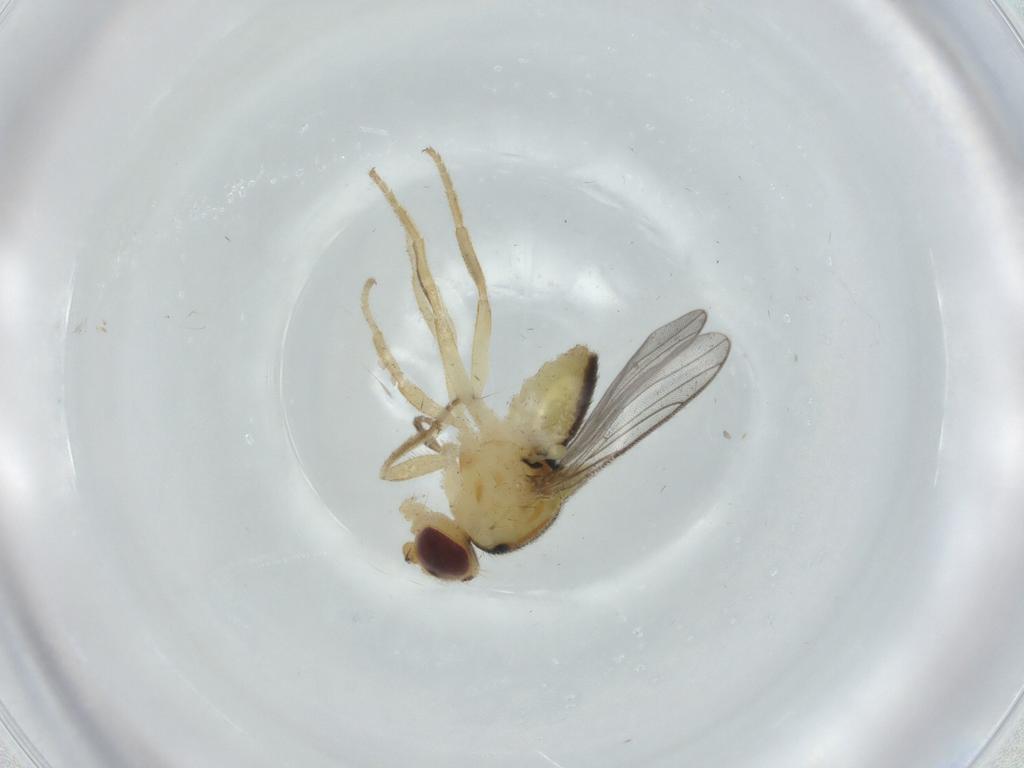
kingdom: Animalia
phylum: Arthropoda
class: Insecta
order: Diptera
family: Chloropidae
